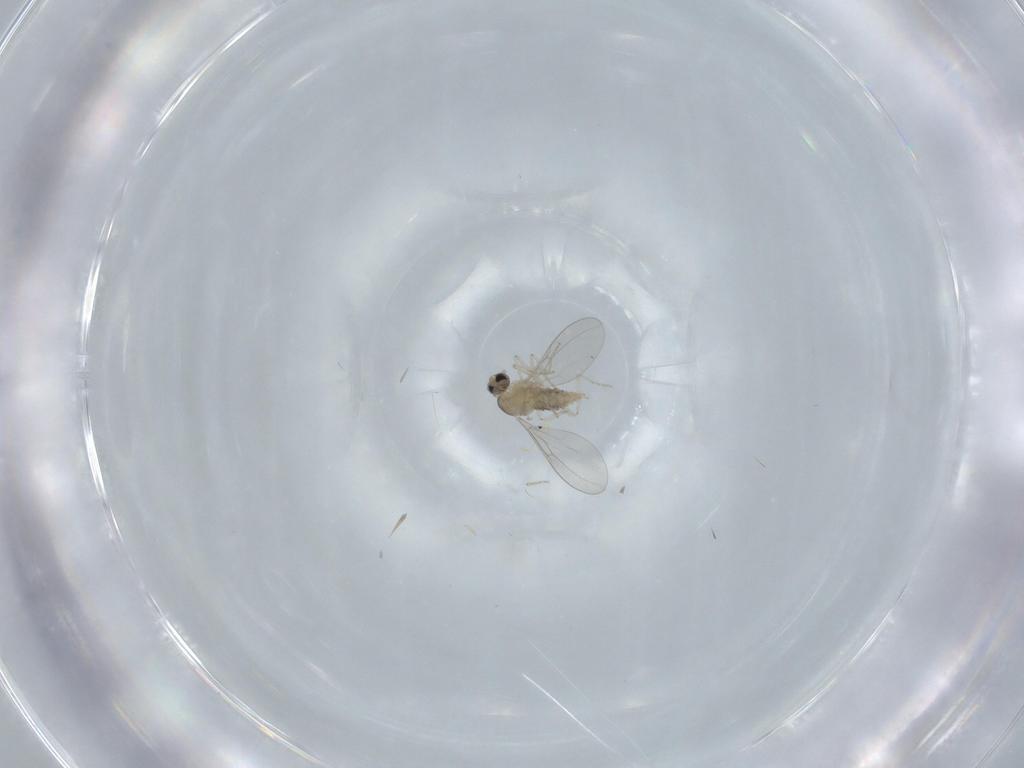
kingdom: Animalia
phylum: Arthropoda
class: Insecta
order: Diptera
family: Cecidomyiidae
